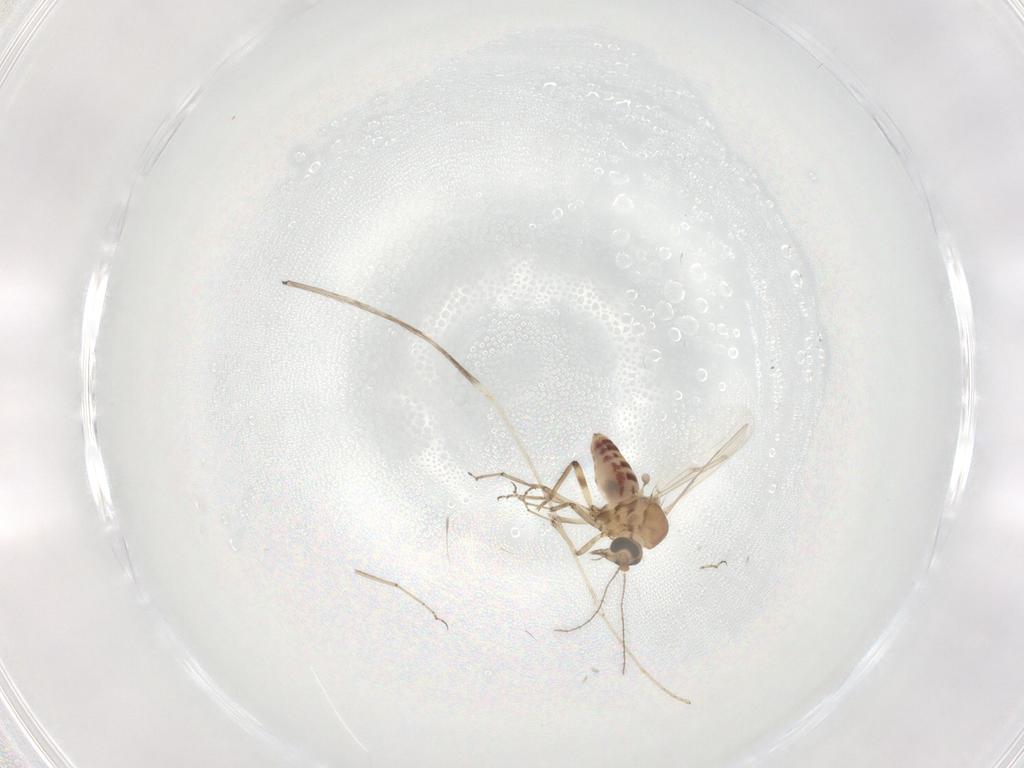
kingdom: Animalia
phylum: Arthropoda
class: Insecta
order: Diptera
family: Ceratopogonidae
